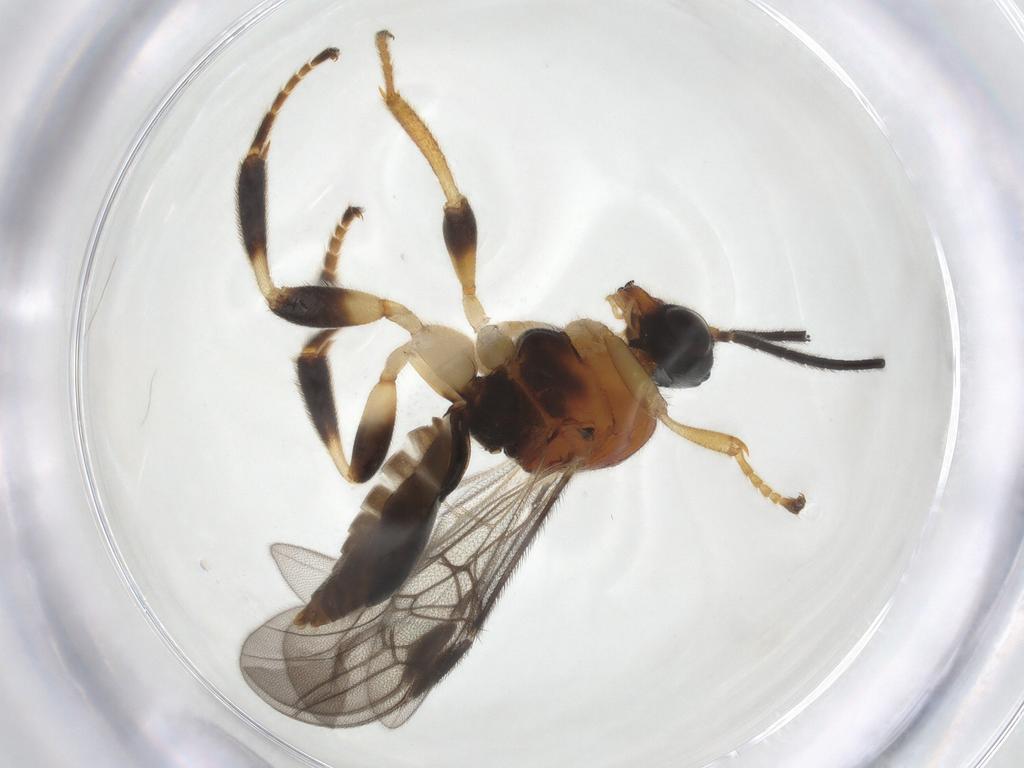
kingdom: Animalia
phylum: Arthropoda
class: Insecta
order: Hymenoptera
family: Braconidae
